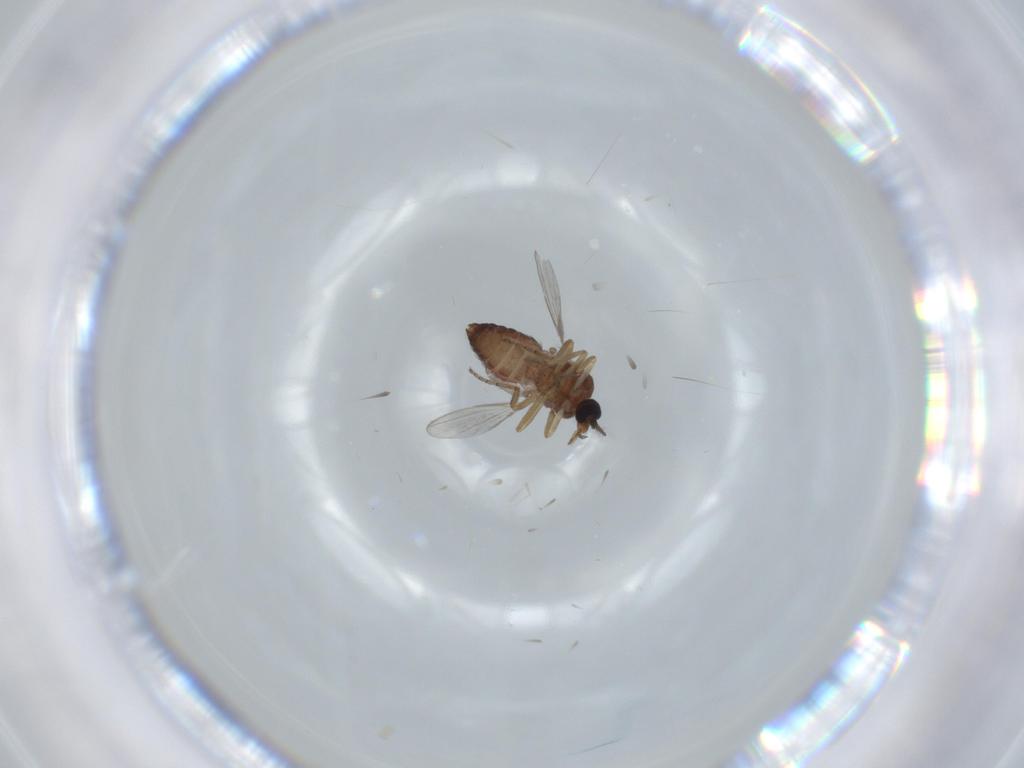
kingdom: Animalia
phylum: Arthropoda
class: Insecta
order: Diptera
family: Ceratopogonidae
